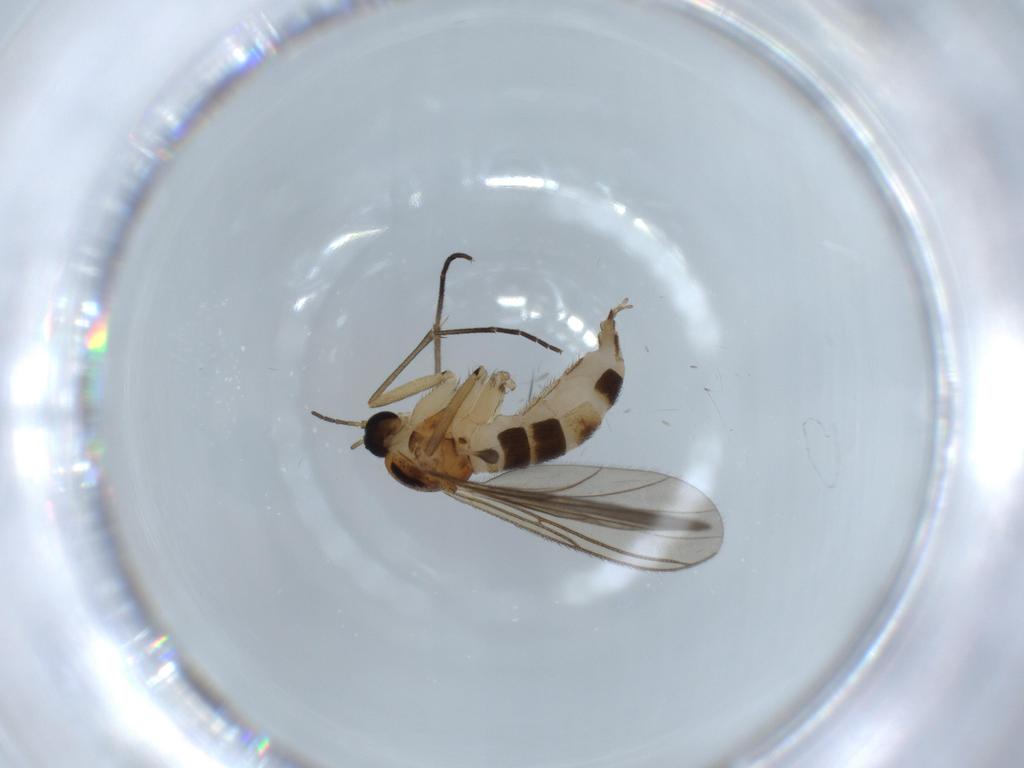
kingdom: Animalia
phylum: Arthropoda
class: Insecta
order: Diptera
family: Sciaridae
